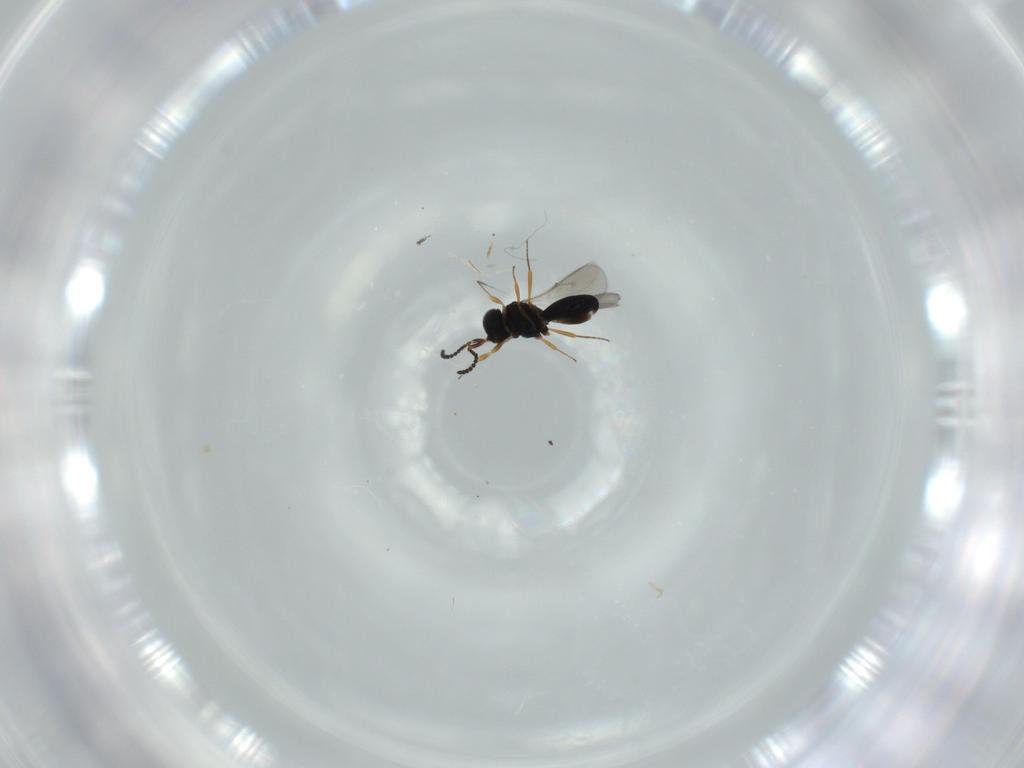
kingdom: Animalia
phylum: Arthropoda
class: Insecta
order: Hymenoptera
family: Scelionidae
